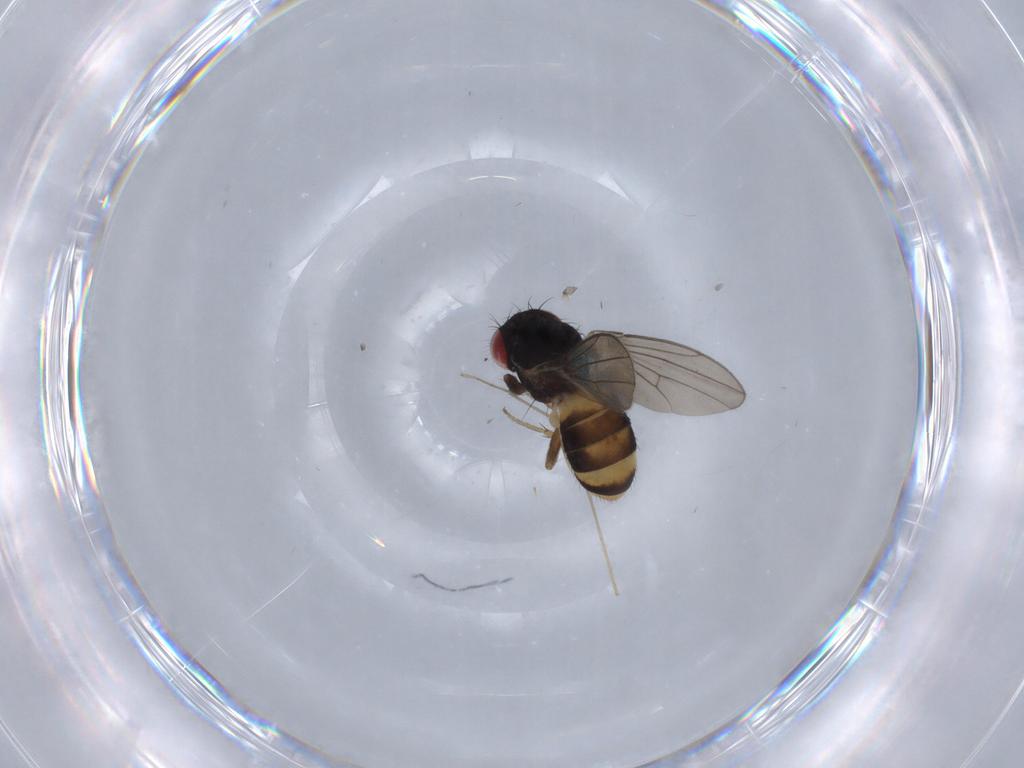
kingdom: Animalia
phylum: Arthropoda
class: Insecta
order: Diptera
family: Drosophilidae
